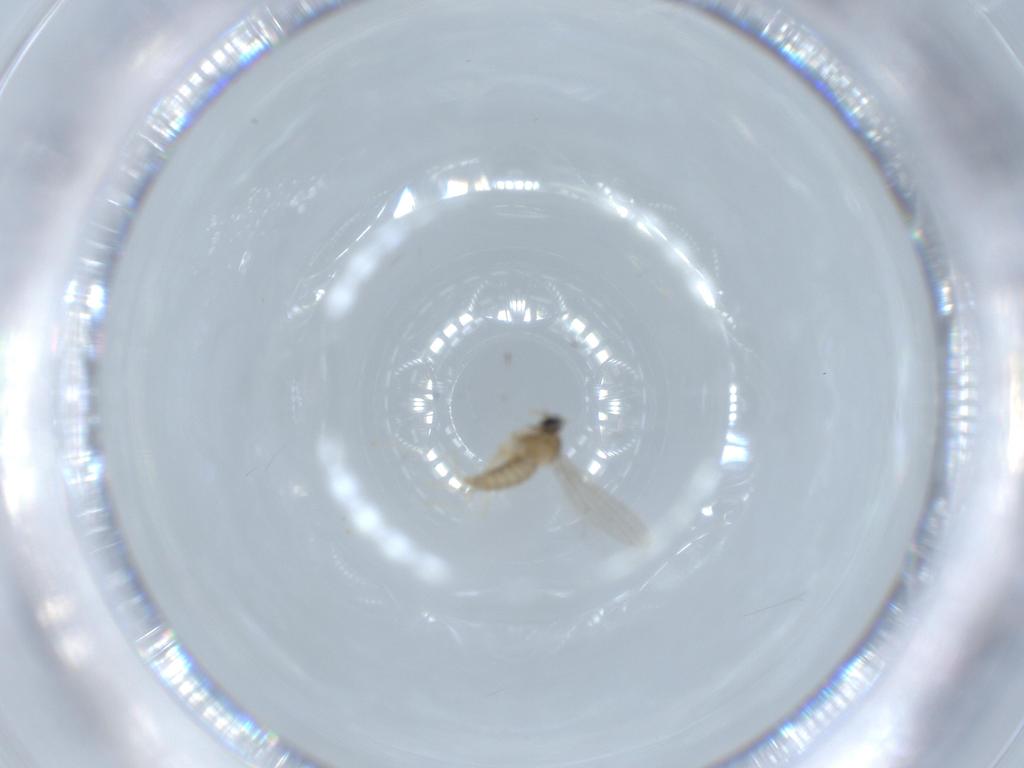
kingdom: Animalia
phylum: Arthropoda
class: Insecta
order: Diptera
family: Cecidomyiidae
